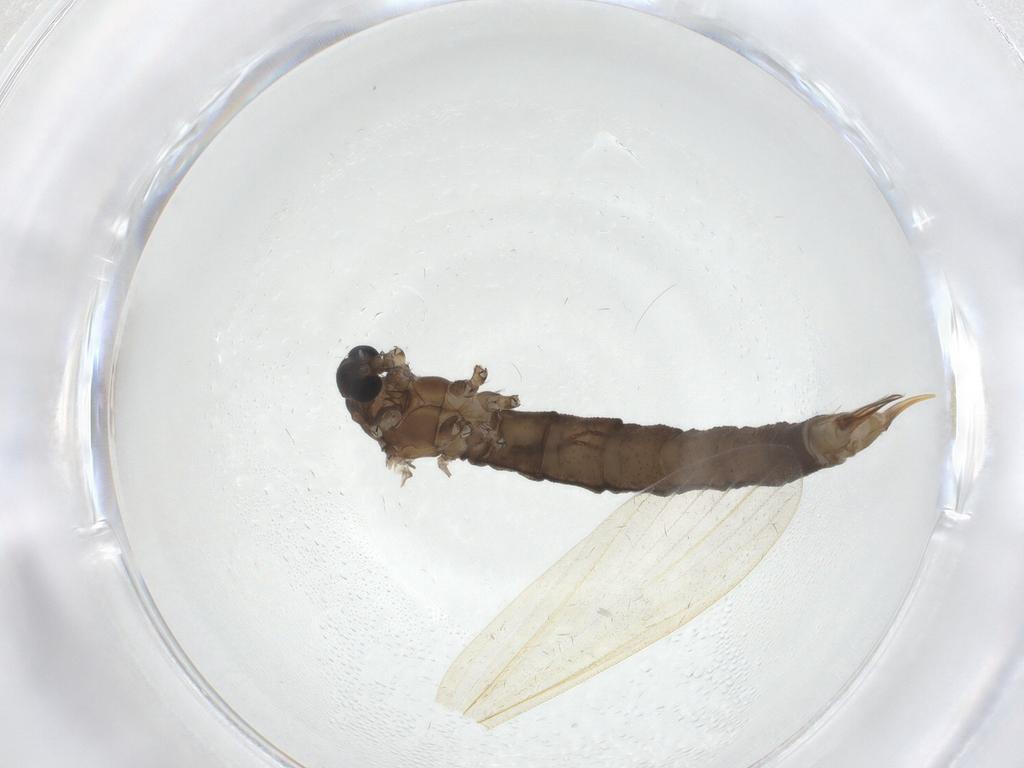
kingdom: Animalia
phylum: Arthropoda
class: Insecta
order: Diptera
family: Limoniidae
